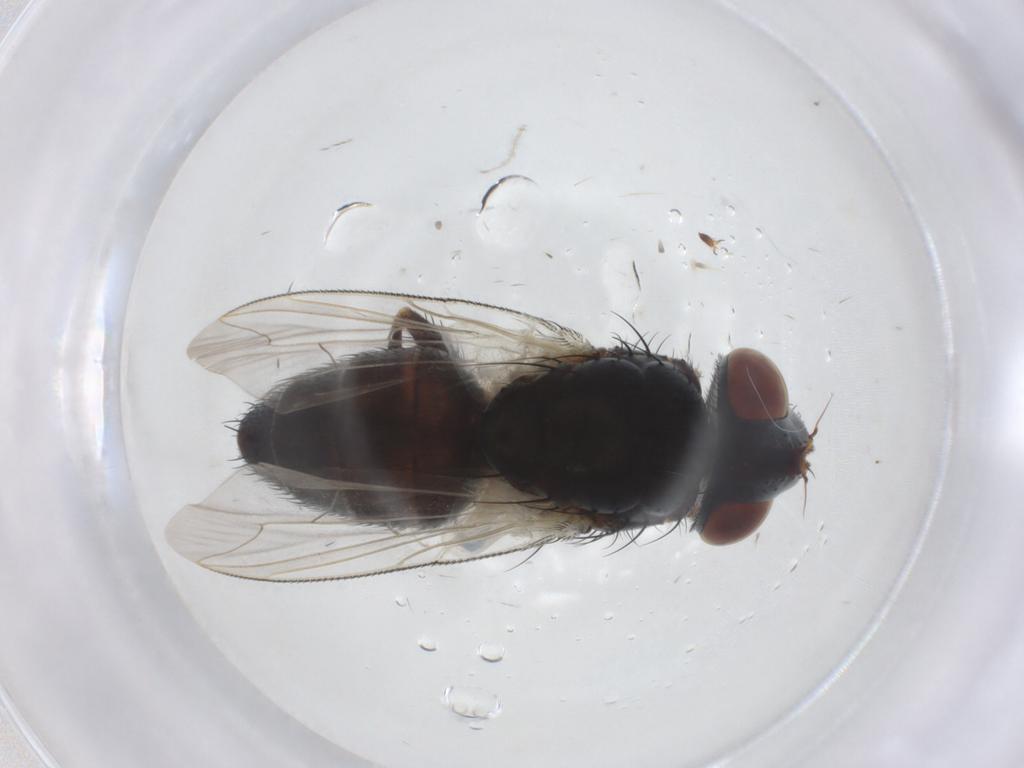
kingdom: Animalia
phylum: Arthropoda
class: Insecta
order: Diptera
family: Sarcophagidae
